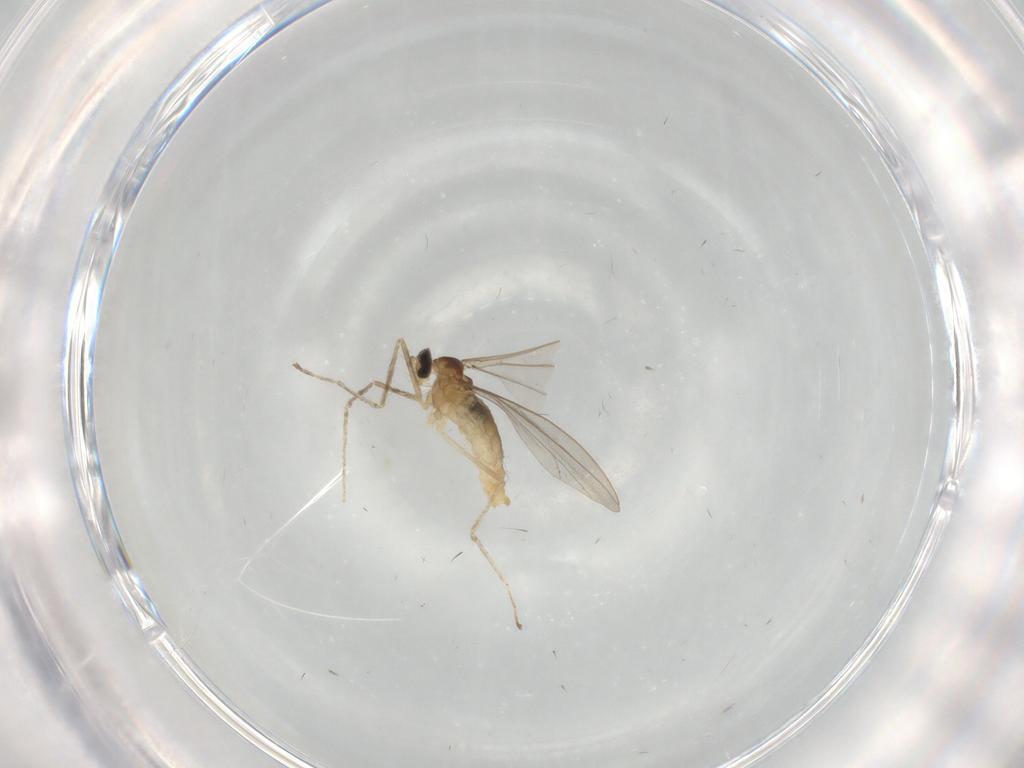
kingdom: Animalia
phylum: Arthropoda
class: Insecta
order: Diptera
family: Cecidomyiidae
